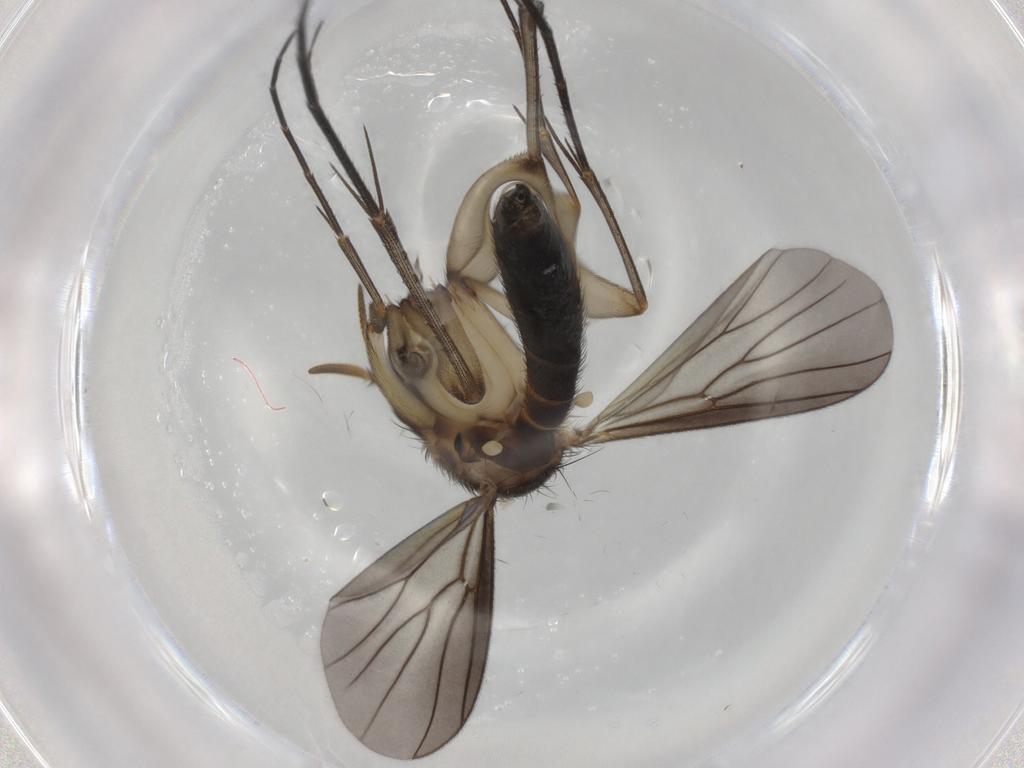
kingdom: Animalia
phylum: Arthropoda
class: Insecta
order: Diptera
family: Mycetophilidae
